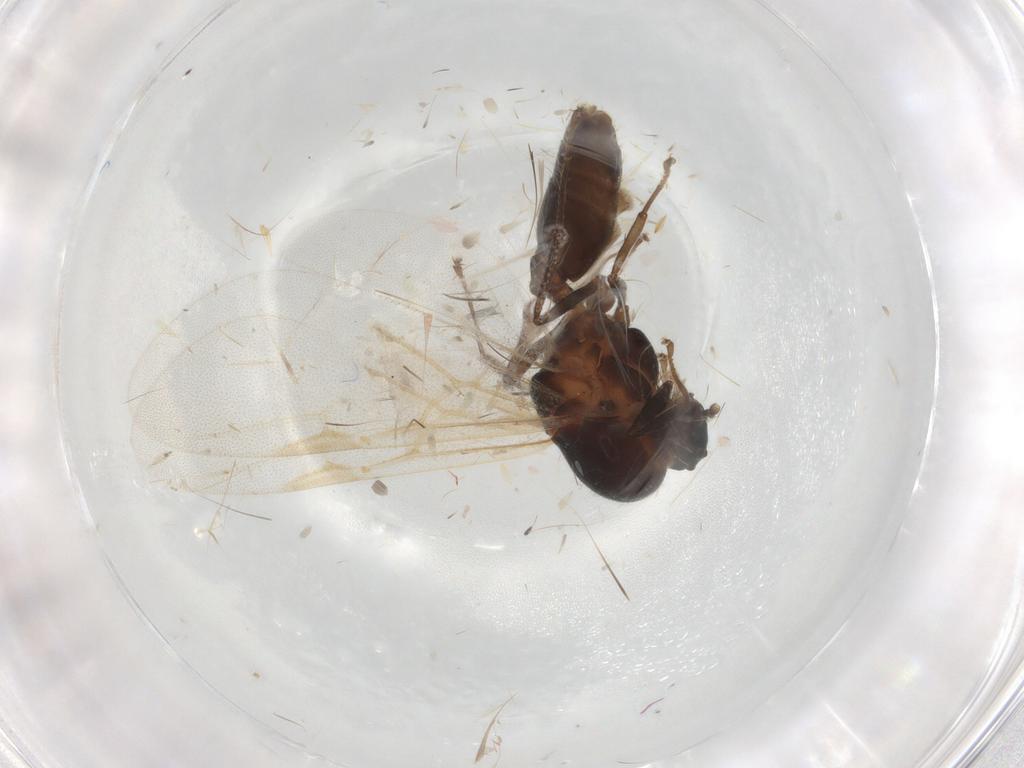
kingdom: Animalia
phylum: Arthropoda
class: Insecta
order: Hymenoptera
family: Formicidae
